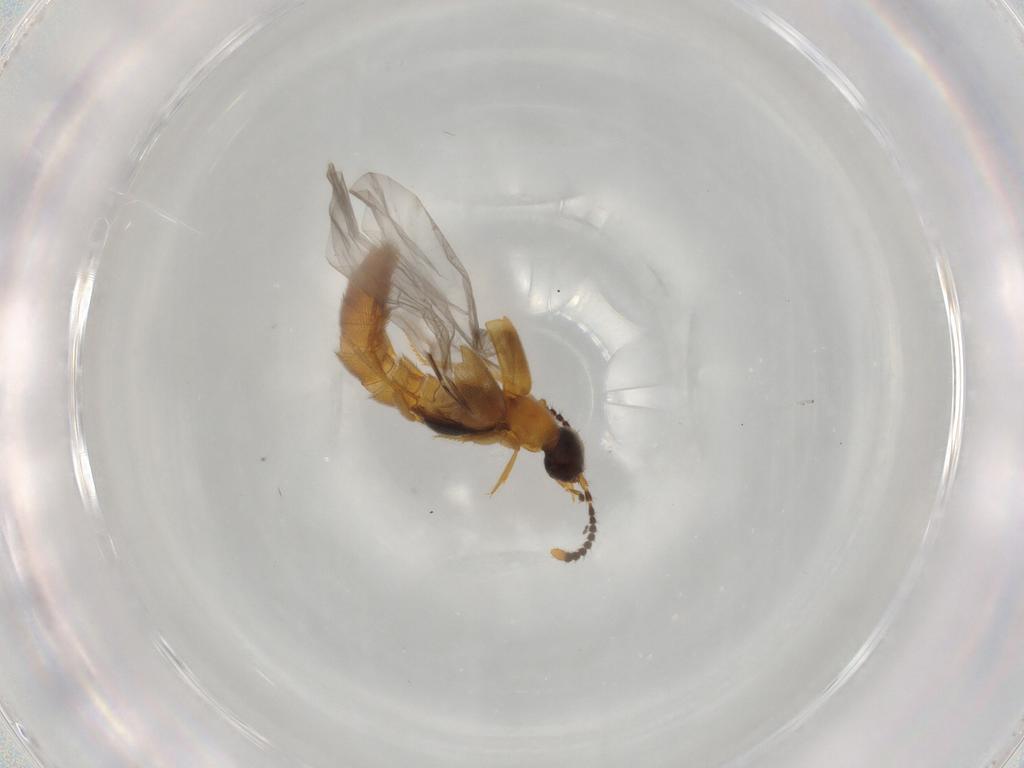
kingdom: Animalia
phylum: Arthropoda
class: Insecta
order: Coleoptera
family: Staphylinidae
